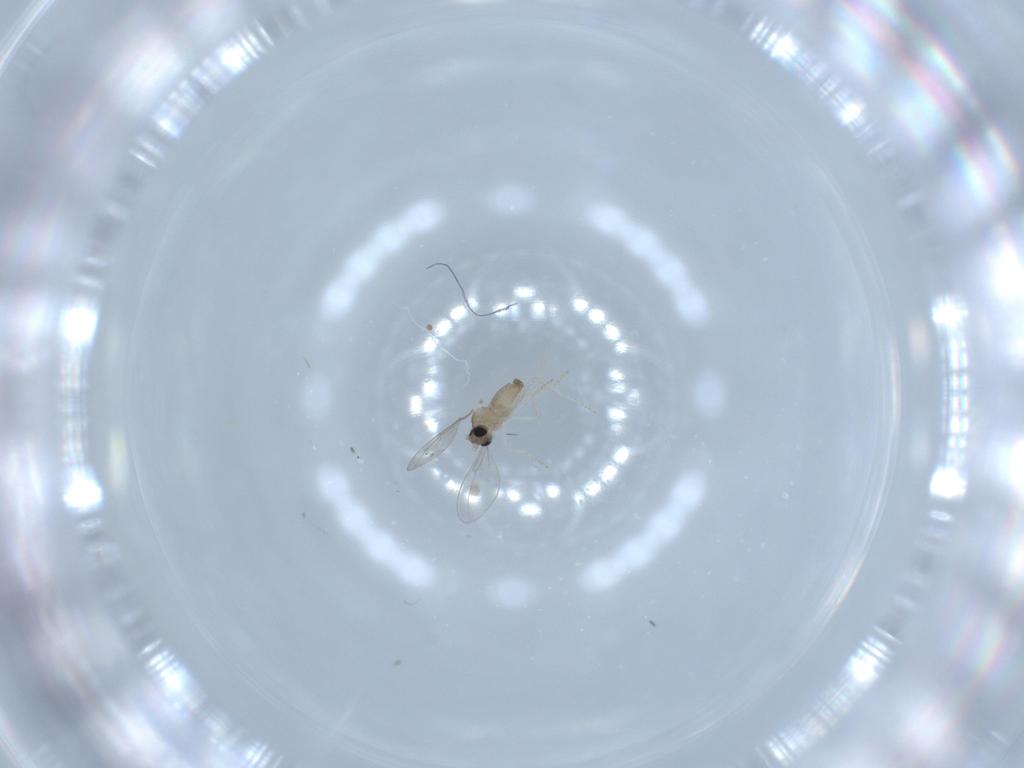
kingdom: Animalia
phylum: Arthropoda
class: Insecta
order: Diptera
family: Cecidomyiidae
